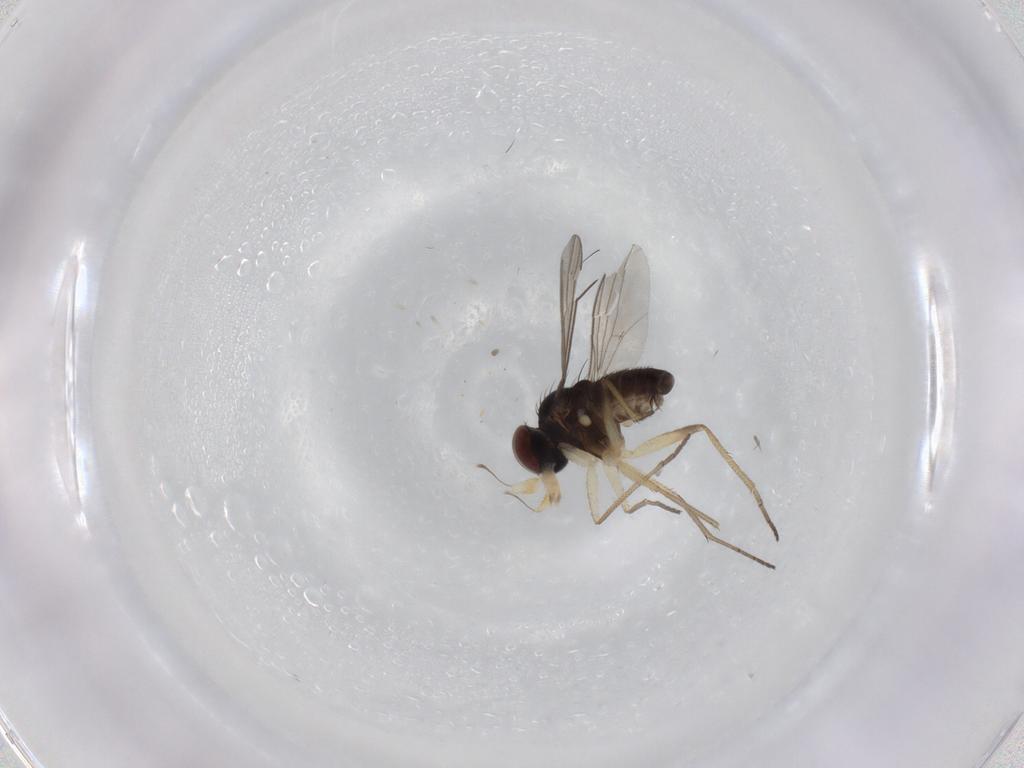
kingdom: Animalia
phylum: Arthropoda
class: Insecta
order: Diptera
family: Dolichopodidae
